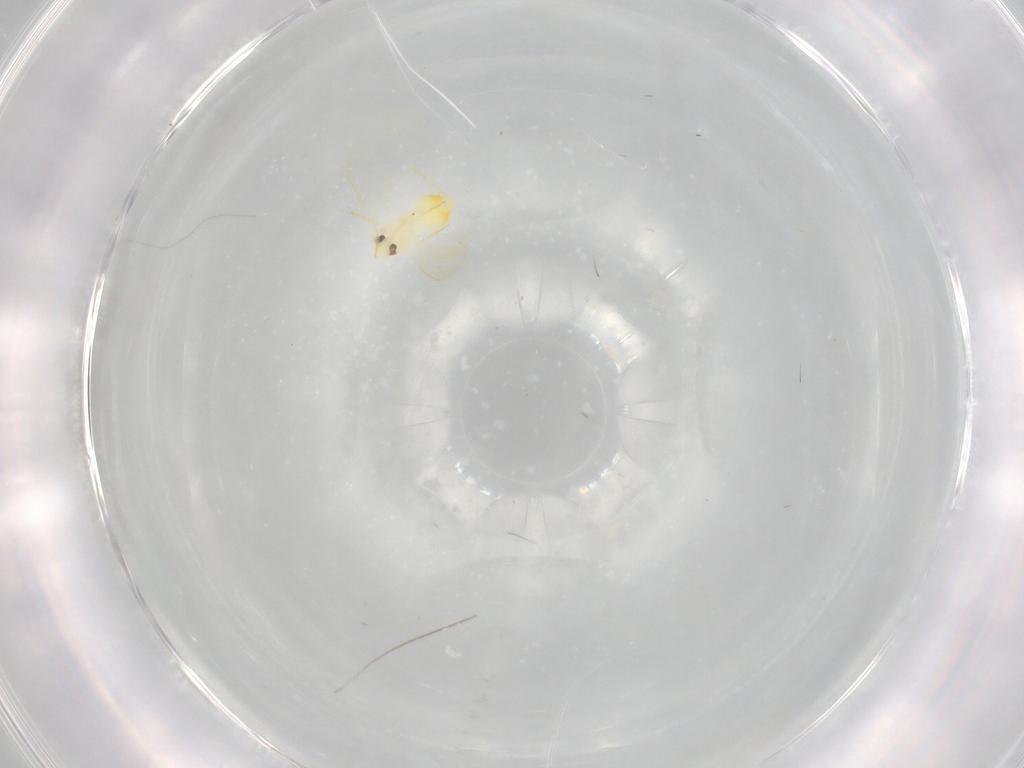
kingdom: Animalia
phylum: Arthropoda
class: Insecta
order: Hemiptera
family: Aleyrodidae
